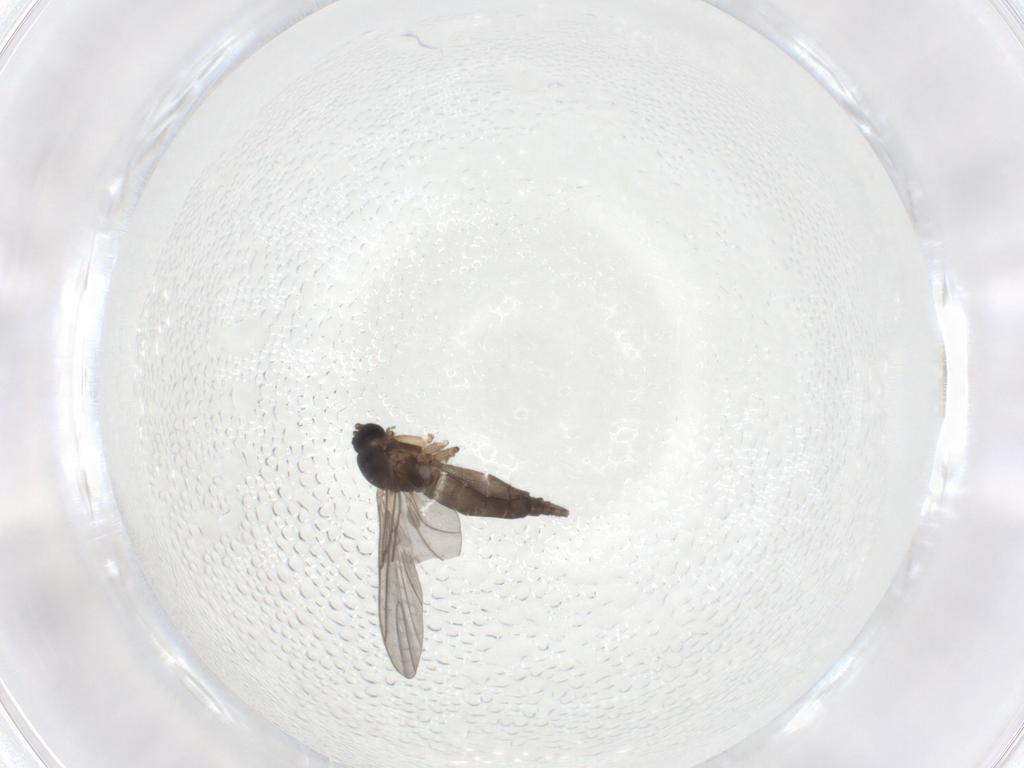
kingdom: Animalia
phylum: Arthropoda
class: Insecta
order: Diptera
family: Sciaridae
